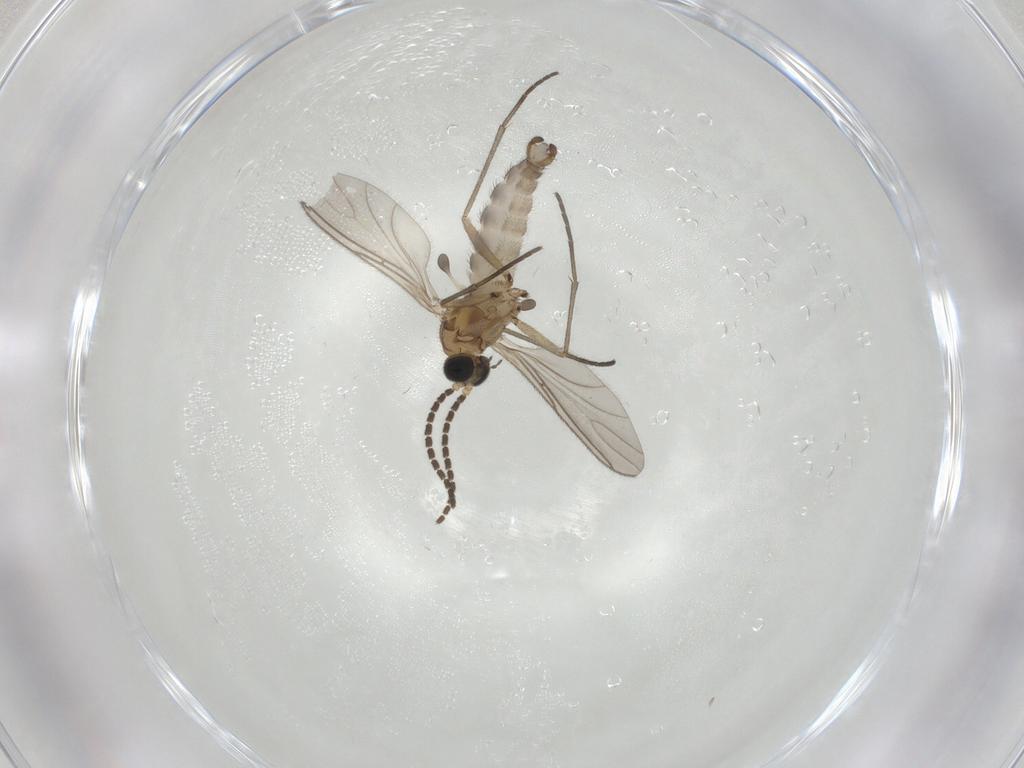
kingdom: Animalia
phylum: Arthropoda
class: Insecta
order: Diptera
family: Sciaridae
